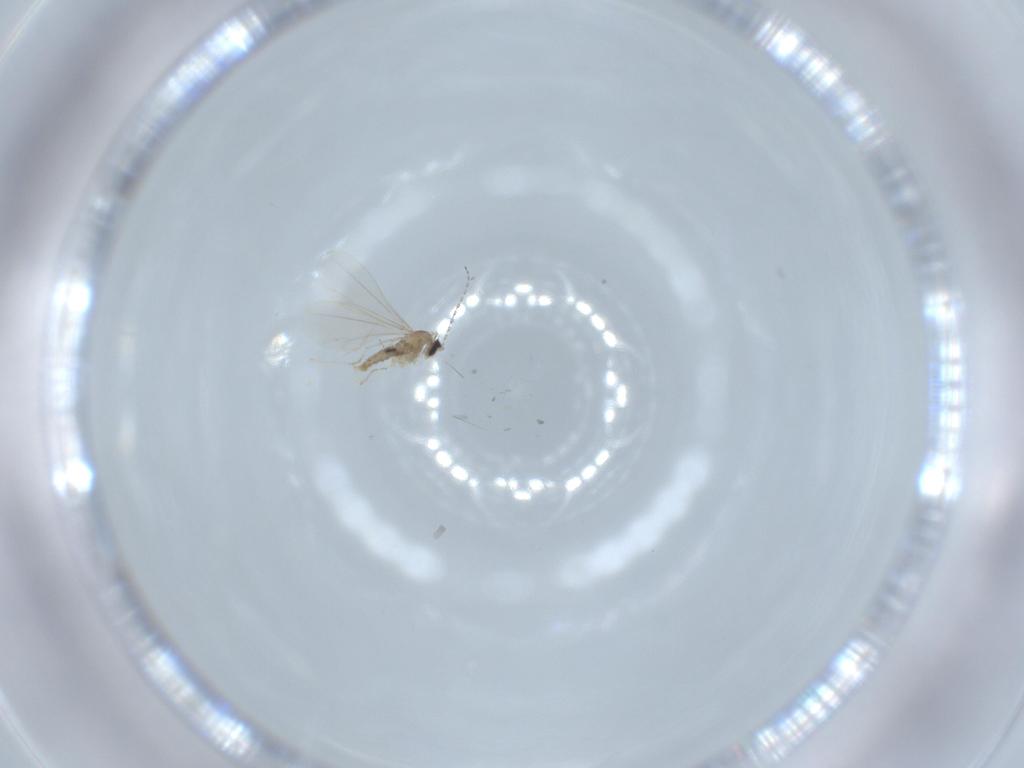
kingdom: Animalia
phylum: Arthropoda
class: Insecta
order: Diptera
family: Cecidomyiidae
